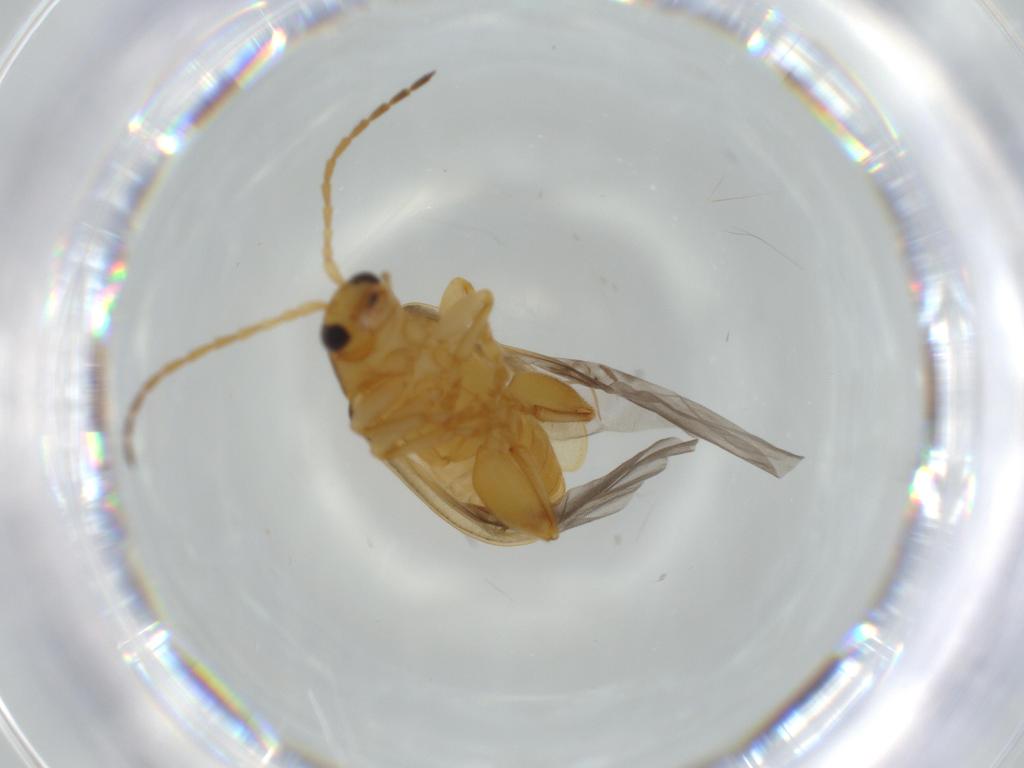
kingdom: Animalia
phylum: Arthropoda
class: Insecta
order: Coleoptera
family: Chrysomelidae
